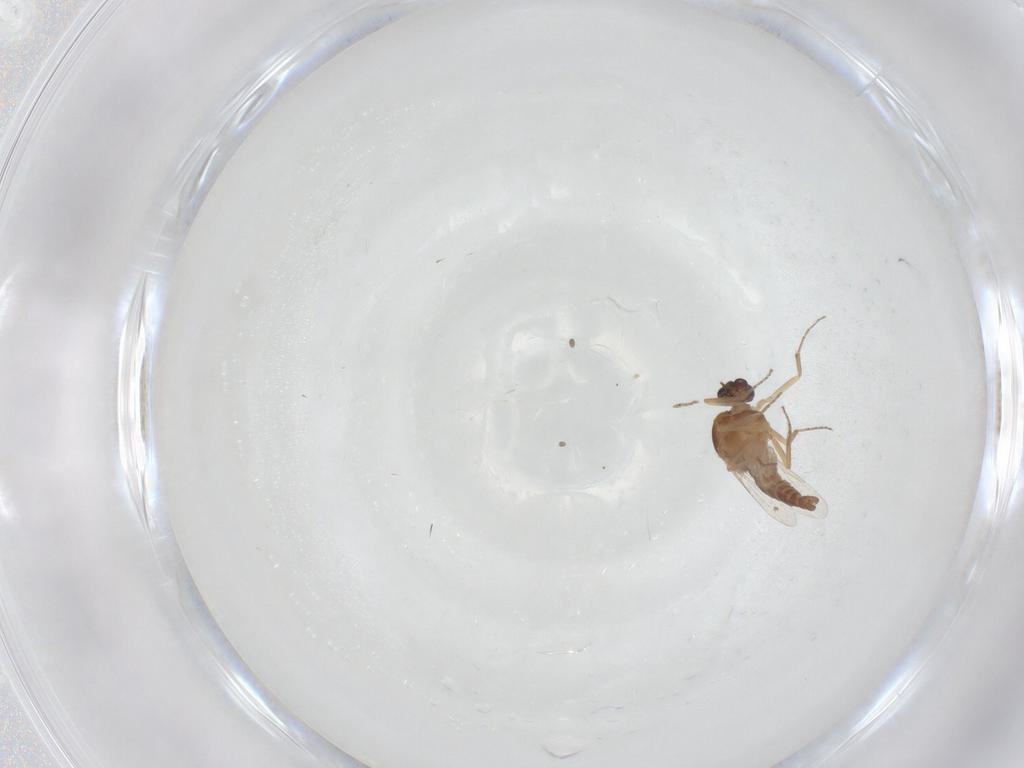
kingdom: Animalia
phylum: Arthropoda
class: Insecta
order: Diptera
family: Ceratopogonidae
